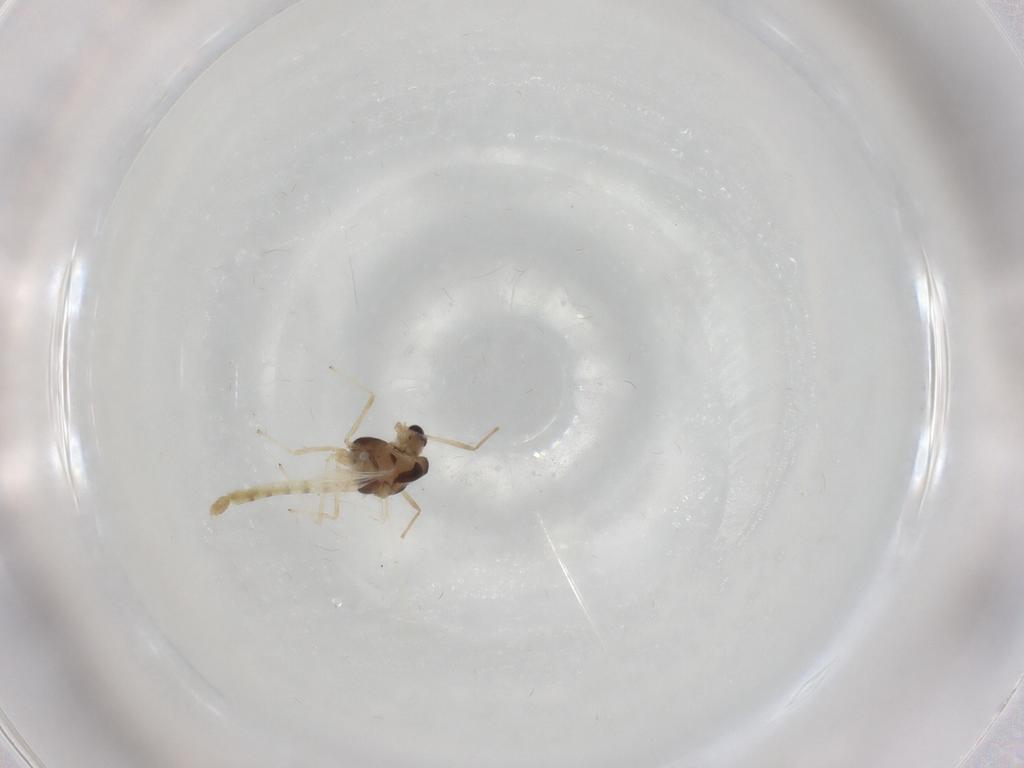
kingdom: Animalia
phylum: Arthropoda
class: Insecta
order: Diptera
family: Chironomidae
